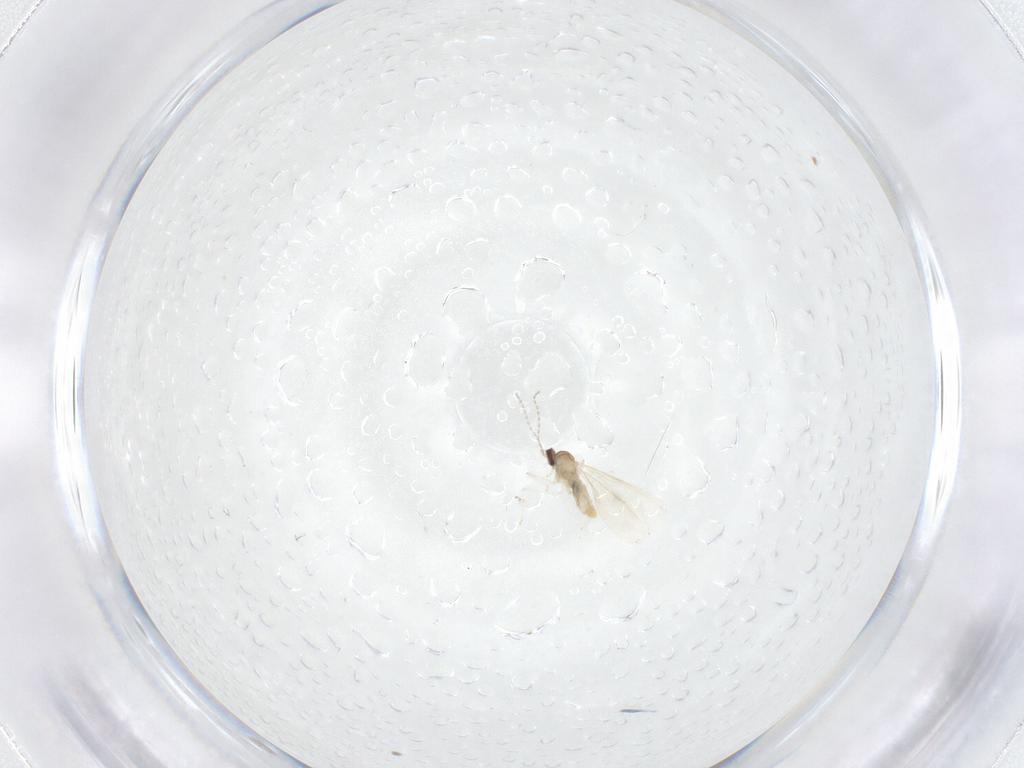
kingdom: Animalia
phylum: Arthropoda
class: Insecta
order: Diptera
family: Cecidomyiidae
